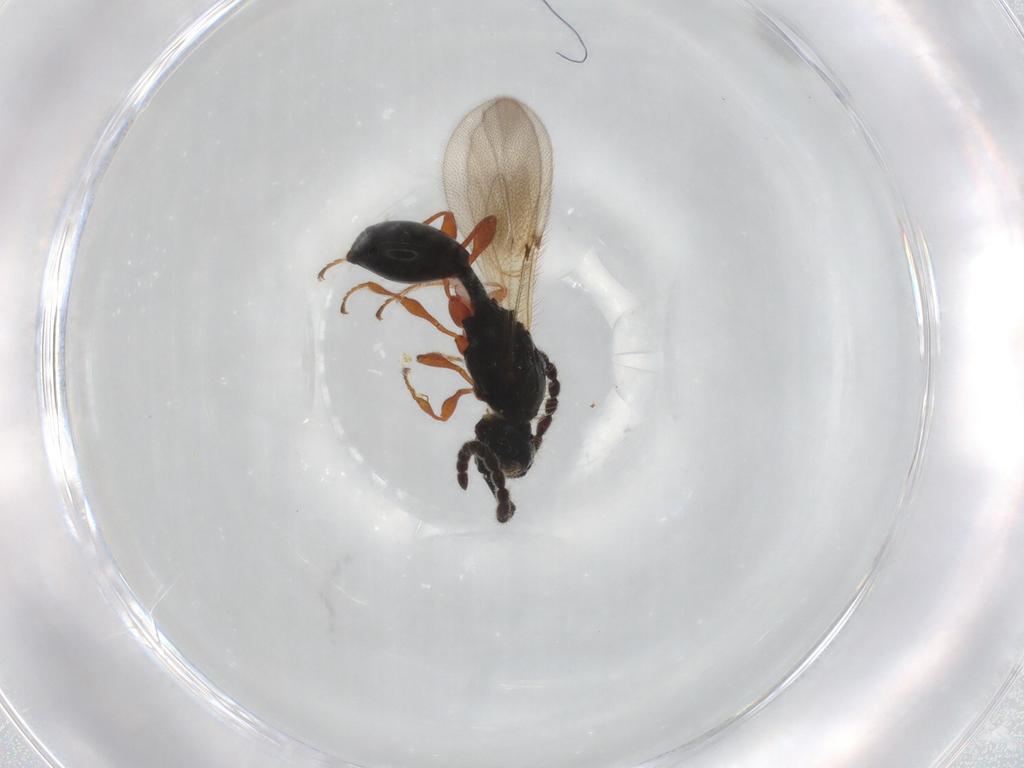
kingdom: Animalia
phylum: Arthropoda
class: Insecta
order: Hymenoptera
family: Diapriidae
